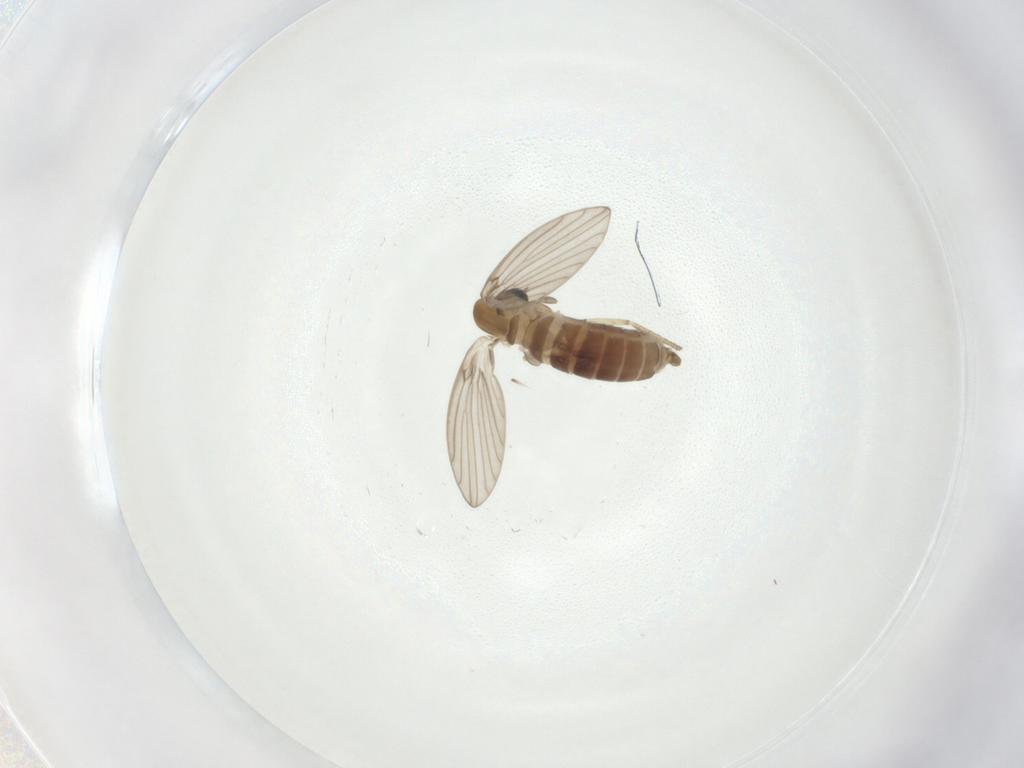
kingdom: Animalia
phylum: Arthropoda
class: Insecta
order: Diptera
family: Psychodidae
